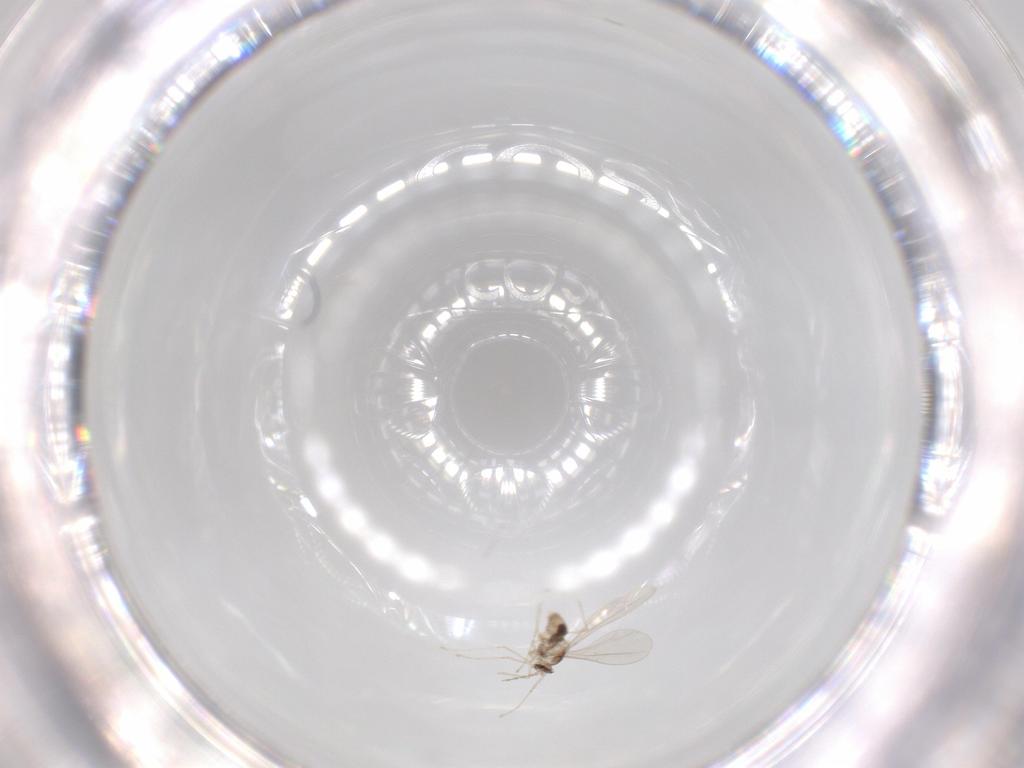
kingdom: Animalia
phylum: Arthropoda
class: Insecta
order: Diptera
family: Cecidomyiidae
